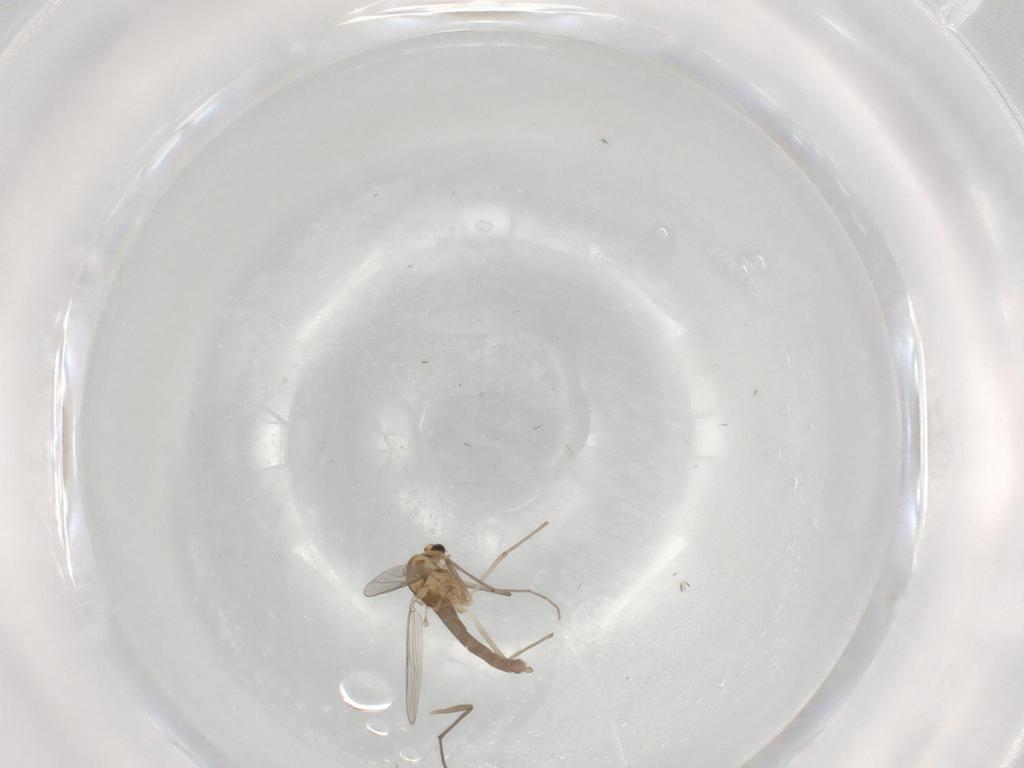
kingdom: Animalia
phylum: Arthropoda
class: Insecta
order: Diptera
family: Chironomidae
